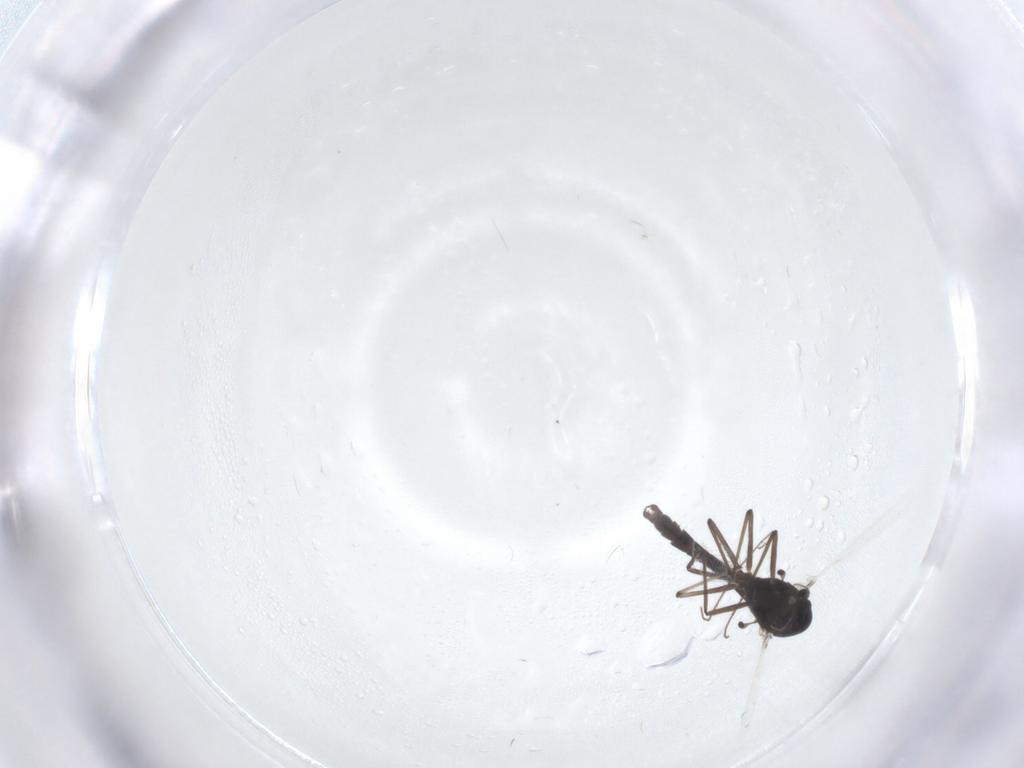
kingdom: Animalia
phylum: Arthropoda
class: Insecta
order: Diptera
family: Chironomidae
